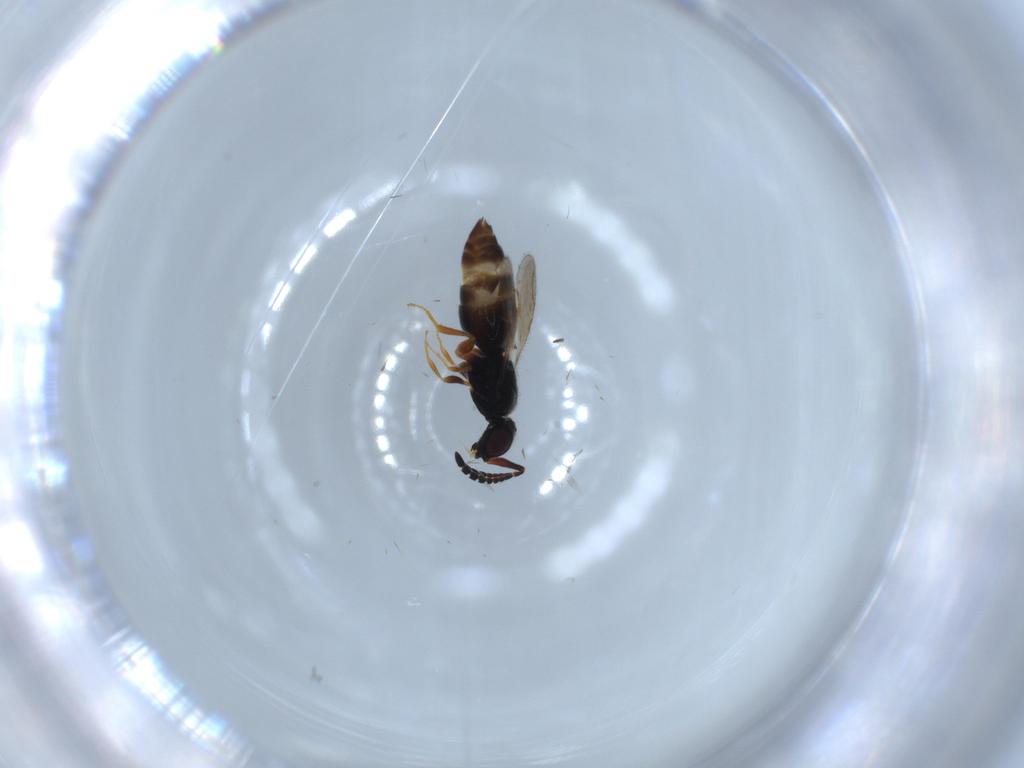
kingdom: Animalia
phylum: Arthropoda
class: Insecta
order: Hymenoptera
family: Ceraphronidae
